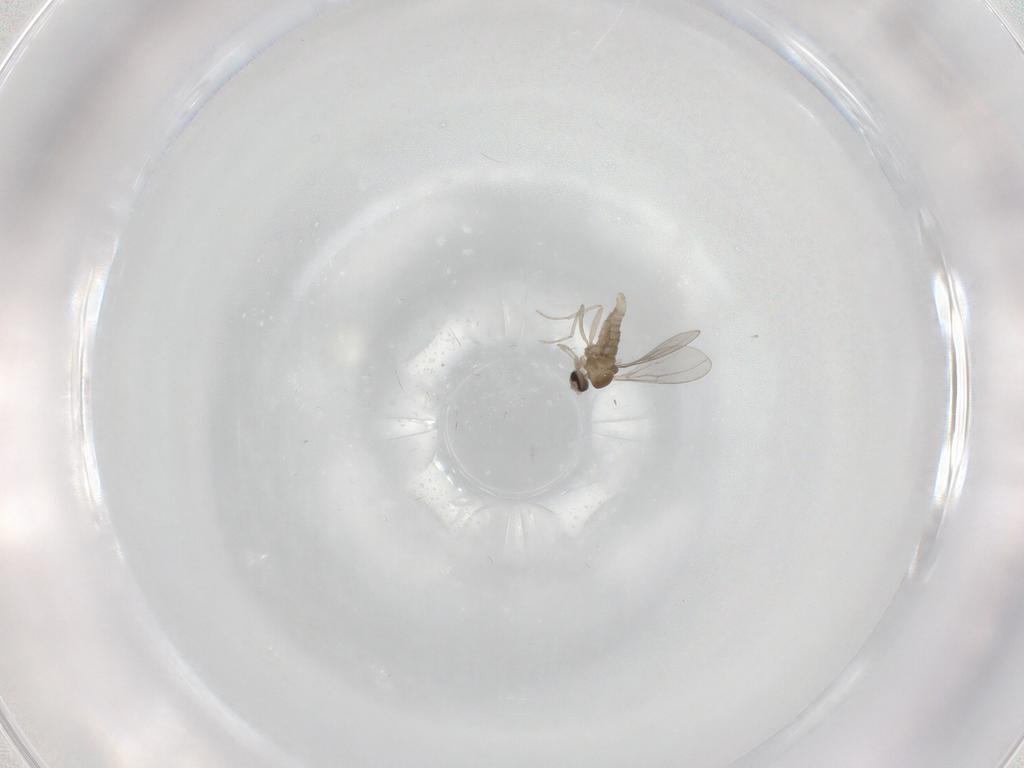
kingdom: Animalia
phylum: Arthropoda
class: Insecta
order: Diptera
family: Cecidomyiidae
